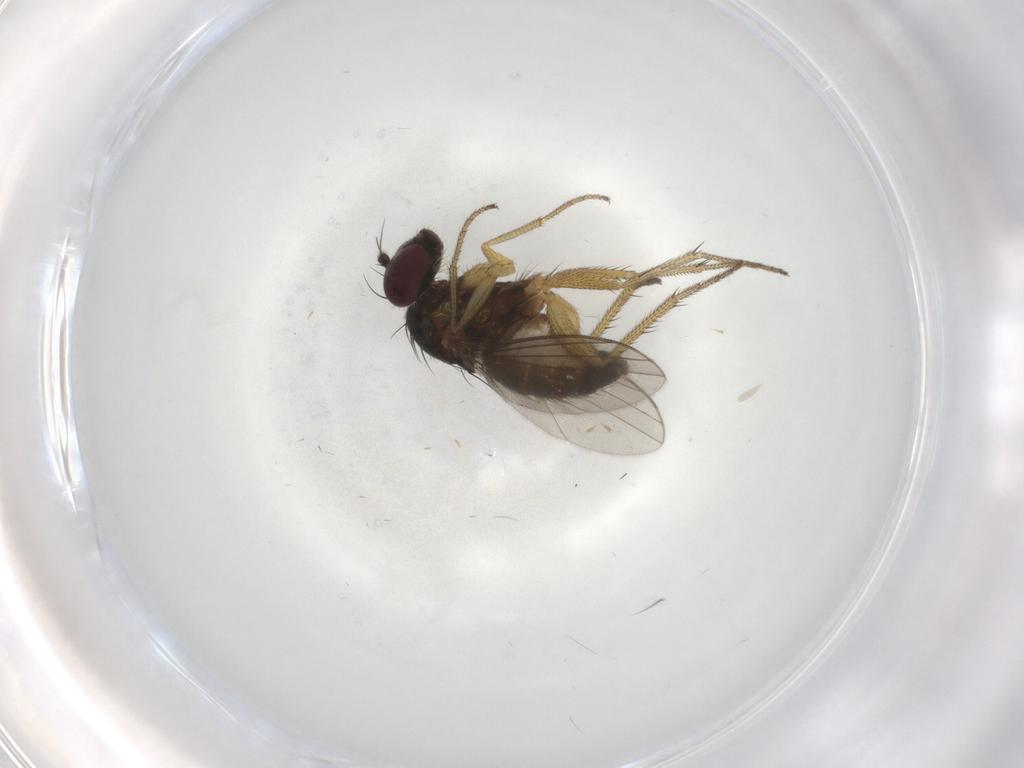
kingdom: Animalia
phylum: Arthropoda
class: Insecta
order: Diptera
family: Dolichopodidae
